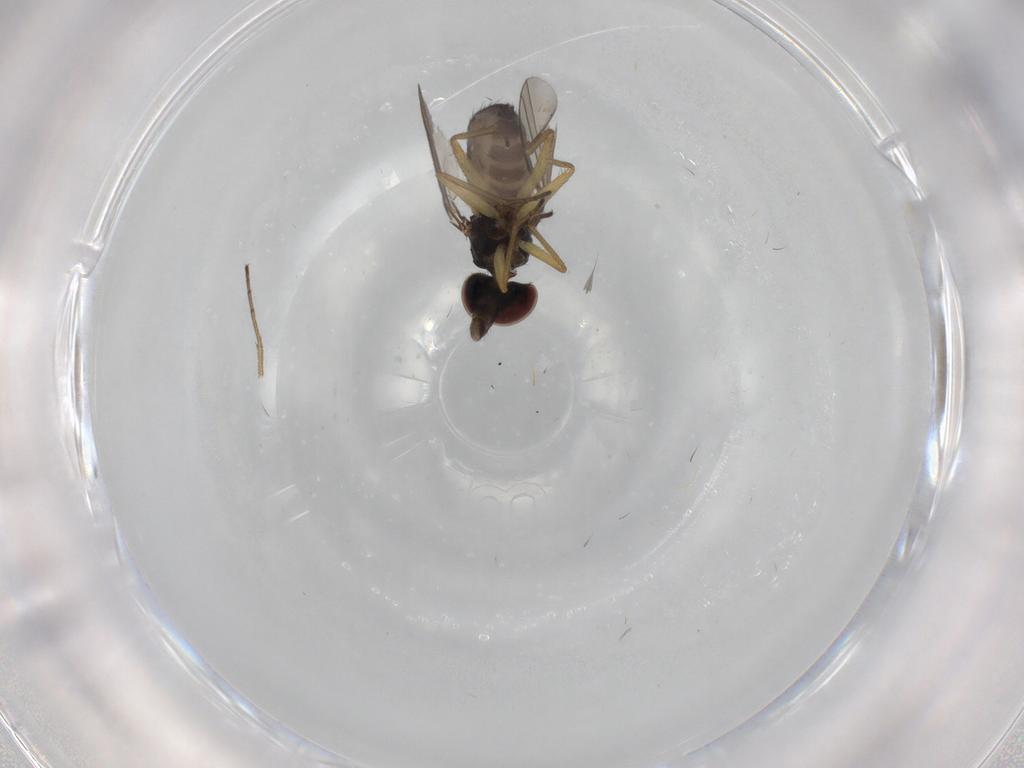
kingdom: Animalia
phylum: Arthropoda
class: Insecta
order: Diptera
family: Dolichopodidae
